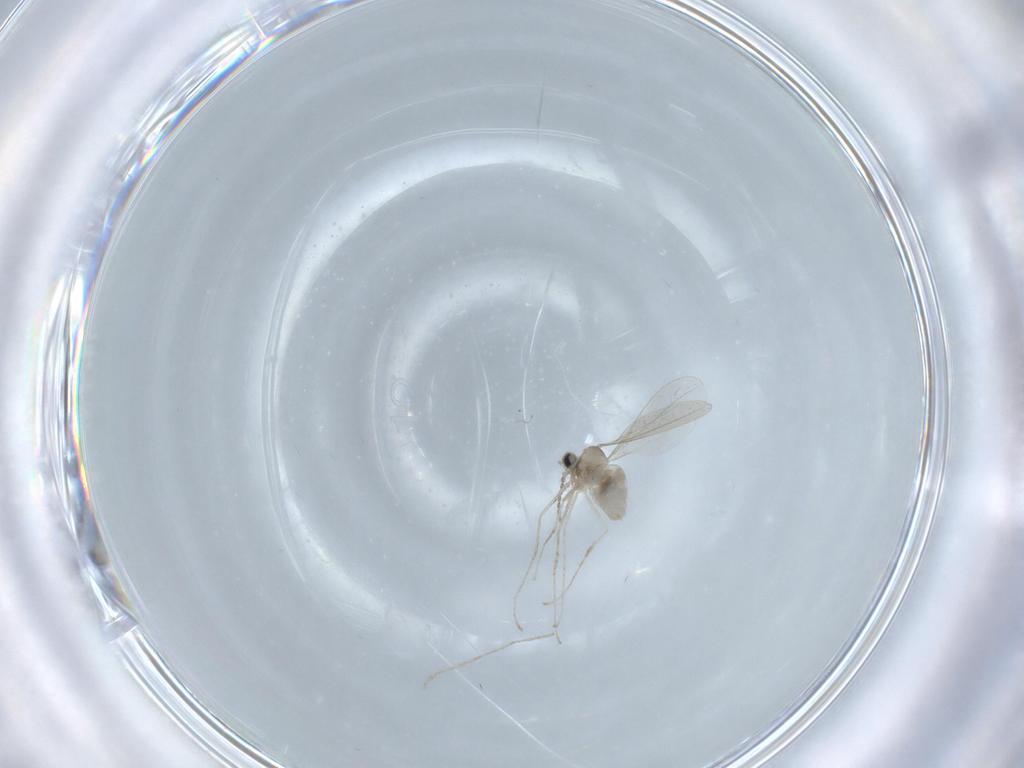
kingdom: Animalia
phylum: Arthropoda
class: Insecta
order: Diptera
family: Cecidomyiidae
